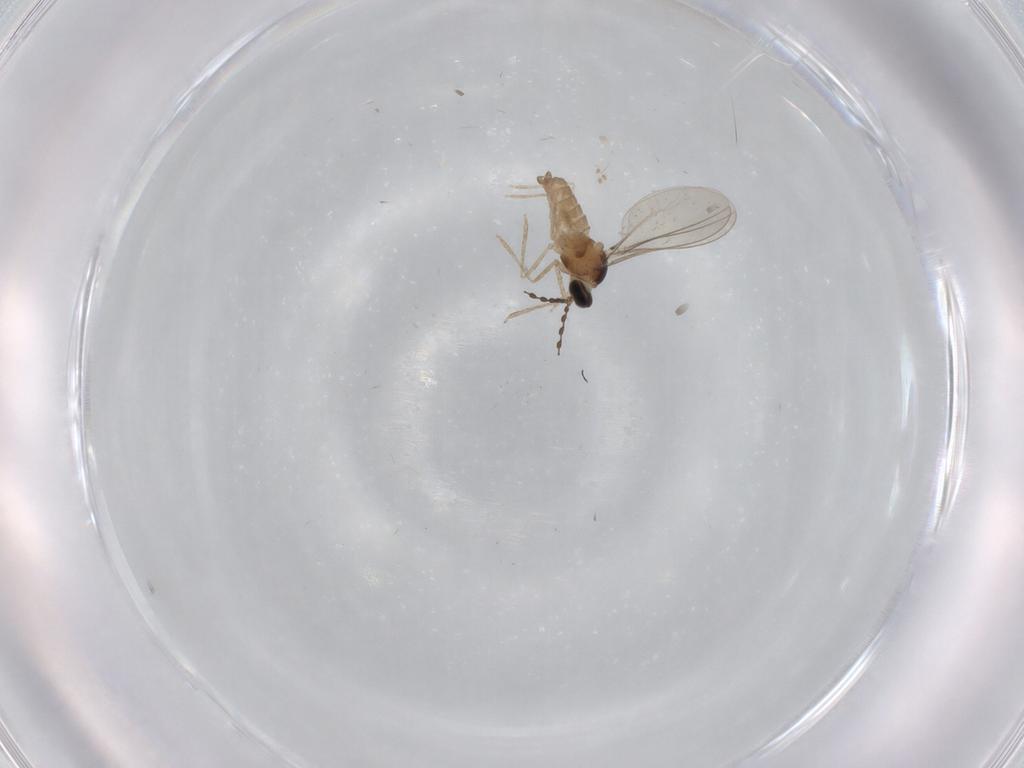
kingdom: Animalia
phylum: Arthropoda
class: Insecta
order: Diptera
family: Cecidomyiidae
